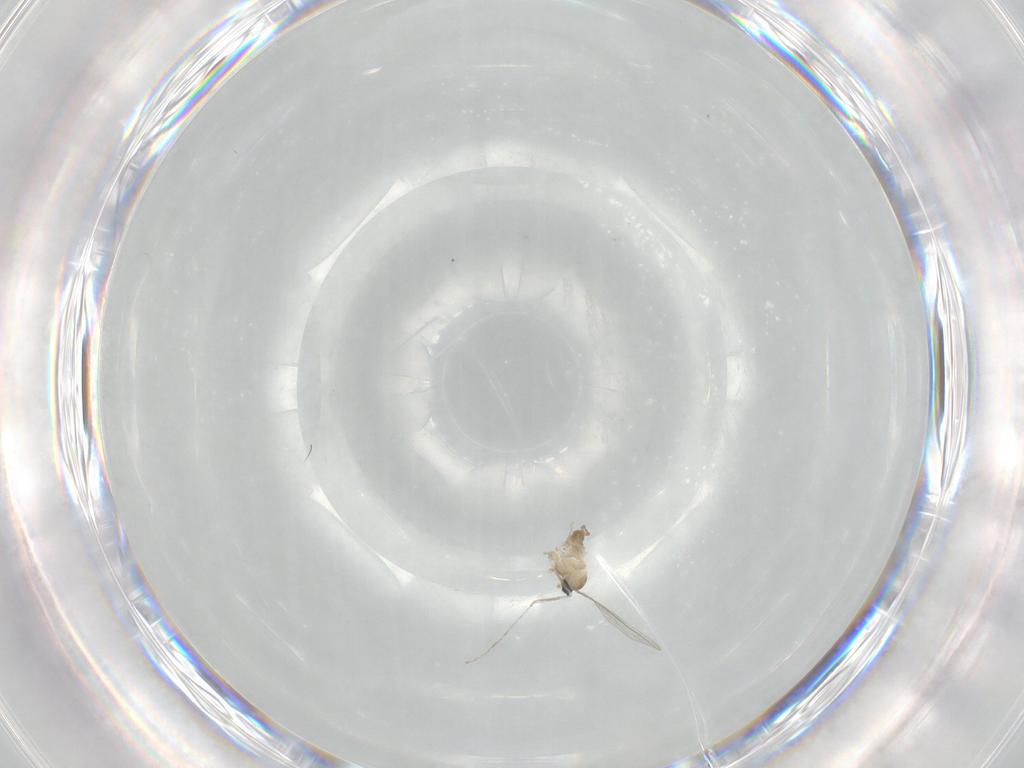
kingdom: Animalia
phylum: Arthropoda
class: Insecta
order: Diptera
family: Cecidomyiidae
